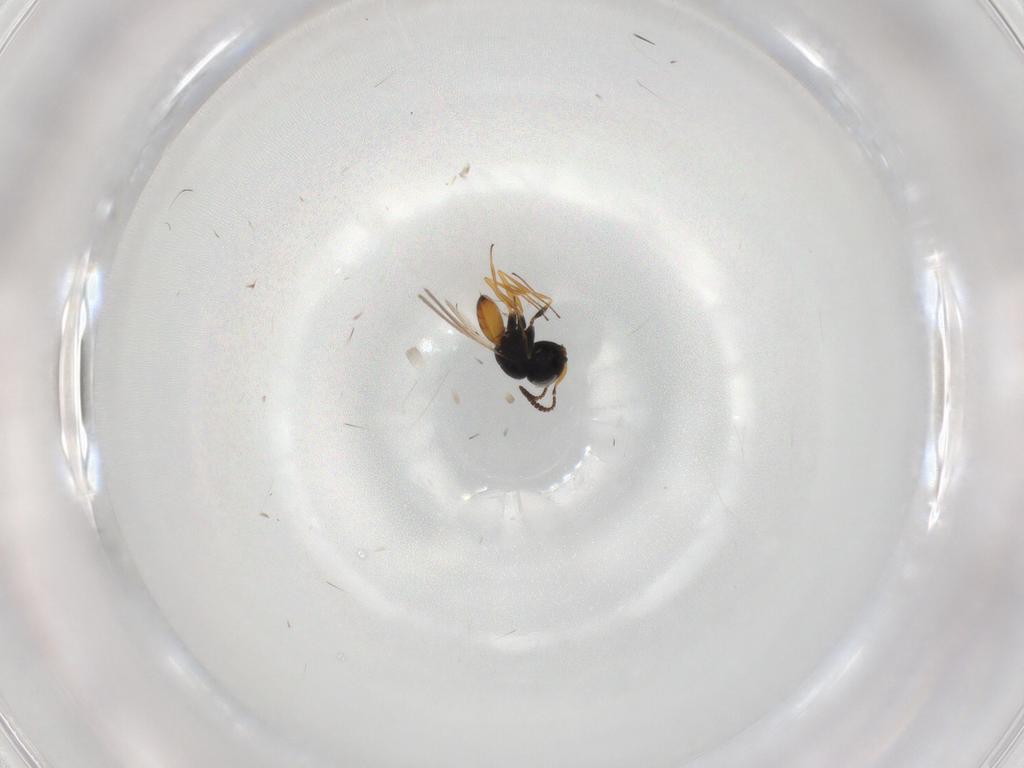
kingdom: Animalia
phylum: Arthropoda
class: Insecta
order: Hymenoptera
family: Scelionidae
